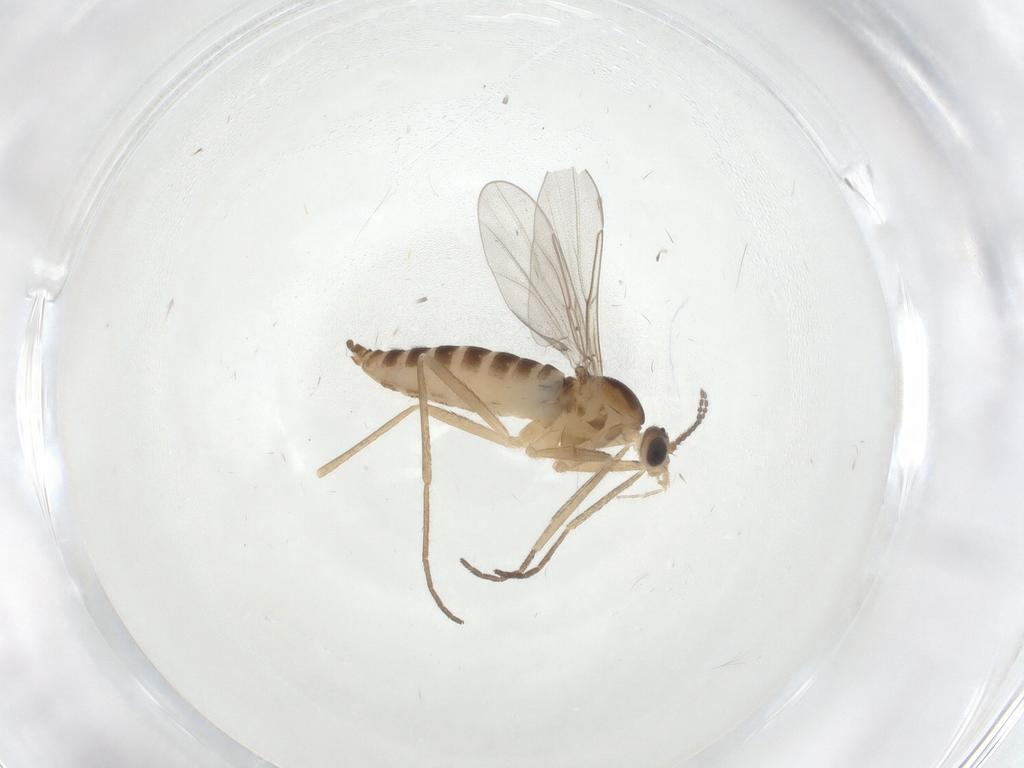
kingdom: Animalia
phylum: Arthropoda
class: Insecta
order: Diptera
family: Cecidomyiidae
